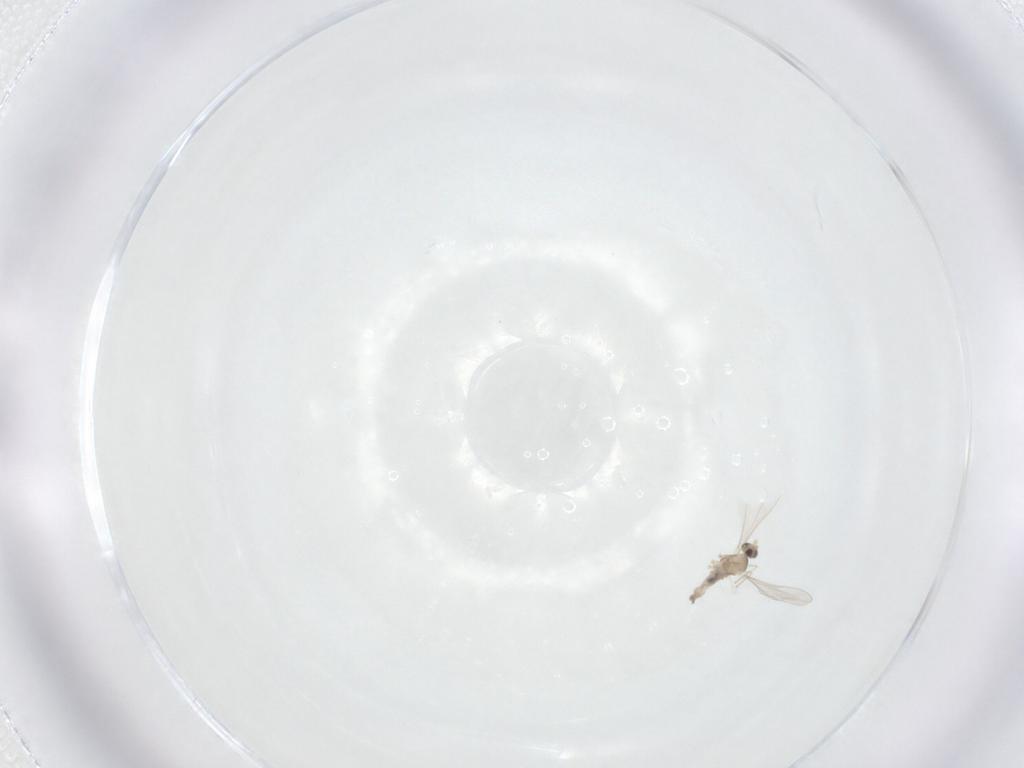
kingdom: Animalia
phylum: Arthropoda
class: Insecta
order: Diptera
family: Cecidomyiidae
